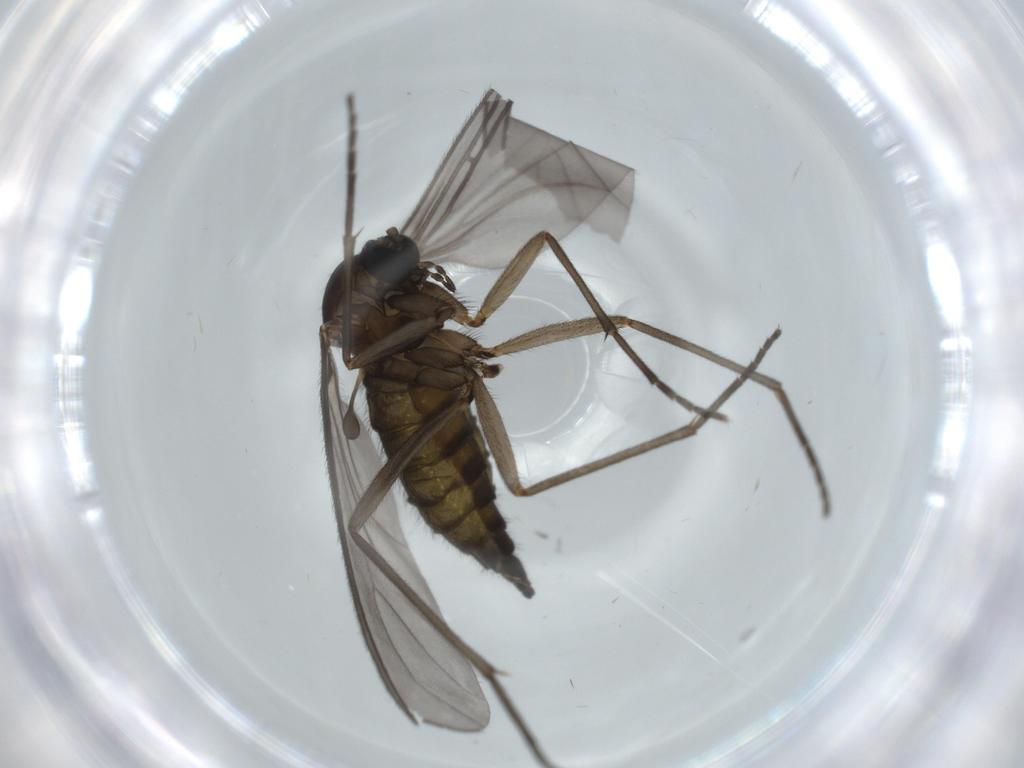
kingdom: Animalia
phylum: Arthropoda
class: Insecta
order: Diptera
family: Sciaridae
